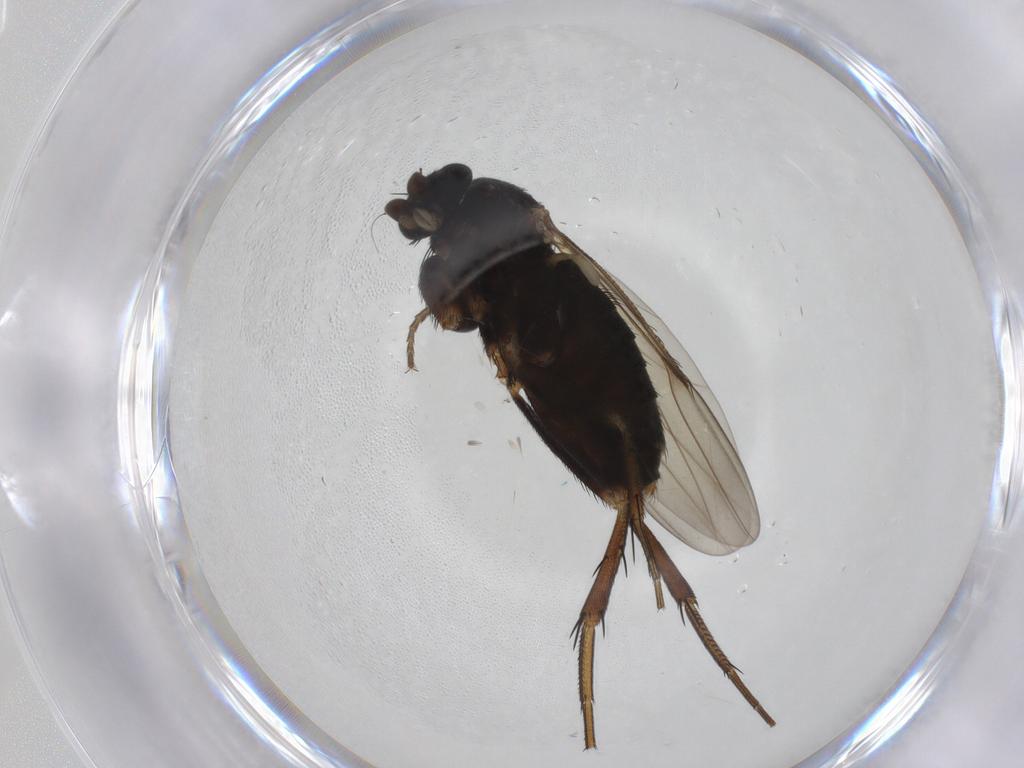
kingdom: Animalia
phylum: Arthropoda
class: Insecta
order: Diptera
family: Phoridae
